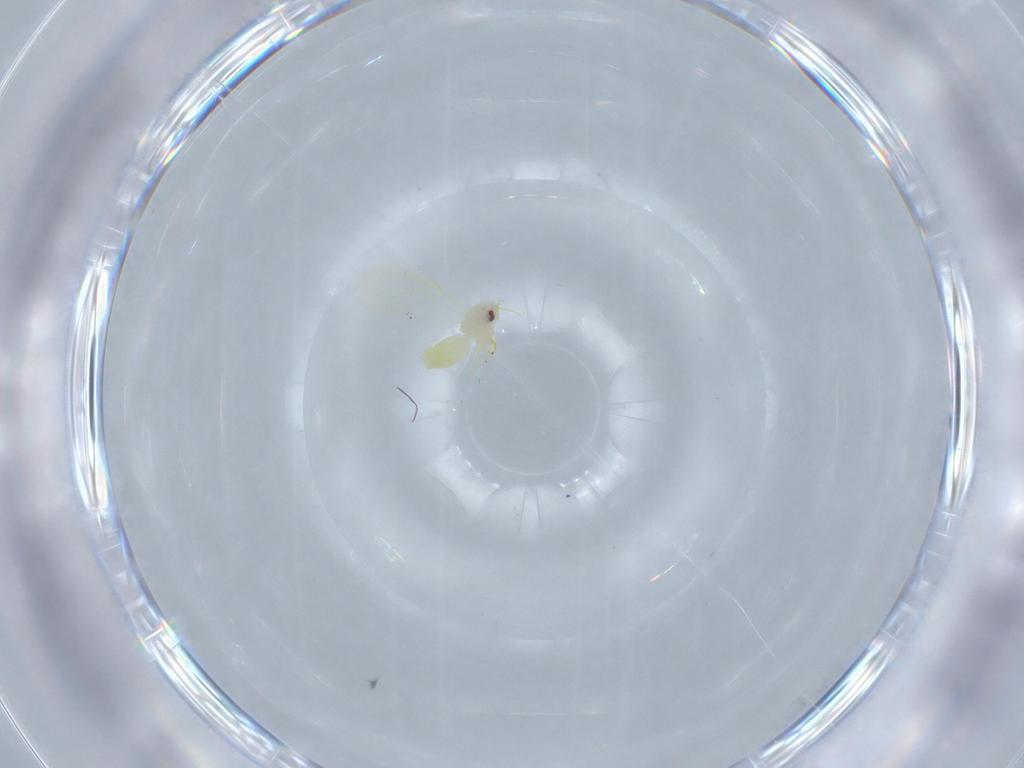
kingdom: Animalia
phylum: Arthropoda
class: Insecta
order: Hemiptera
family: Aleyrodidae
